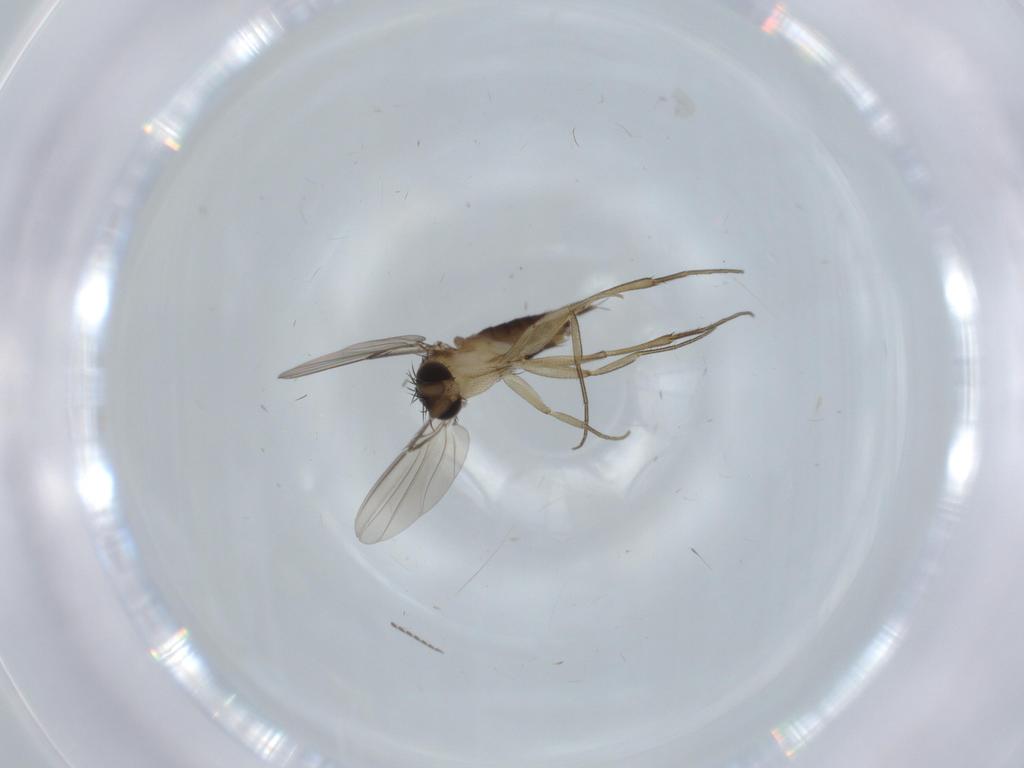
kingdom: Animalia
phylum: Arthropoda
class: Insecta
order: Diptera
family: Phoridae
